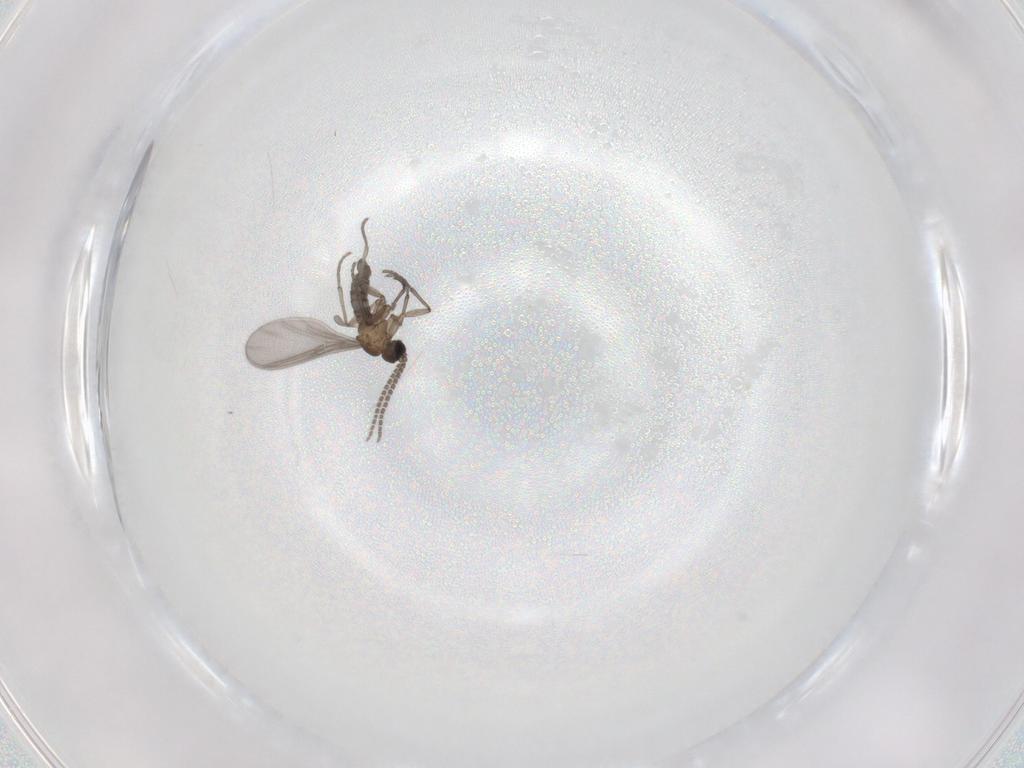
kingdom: Animalia
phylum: Arthropoda
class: Insecta
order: Diptera
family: Sciaridae
